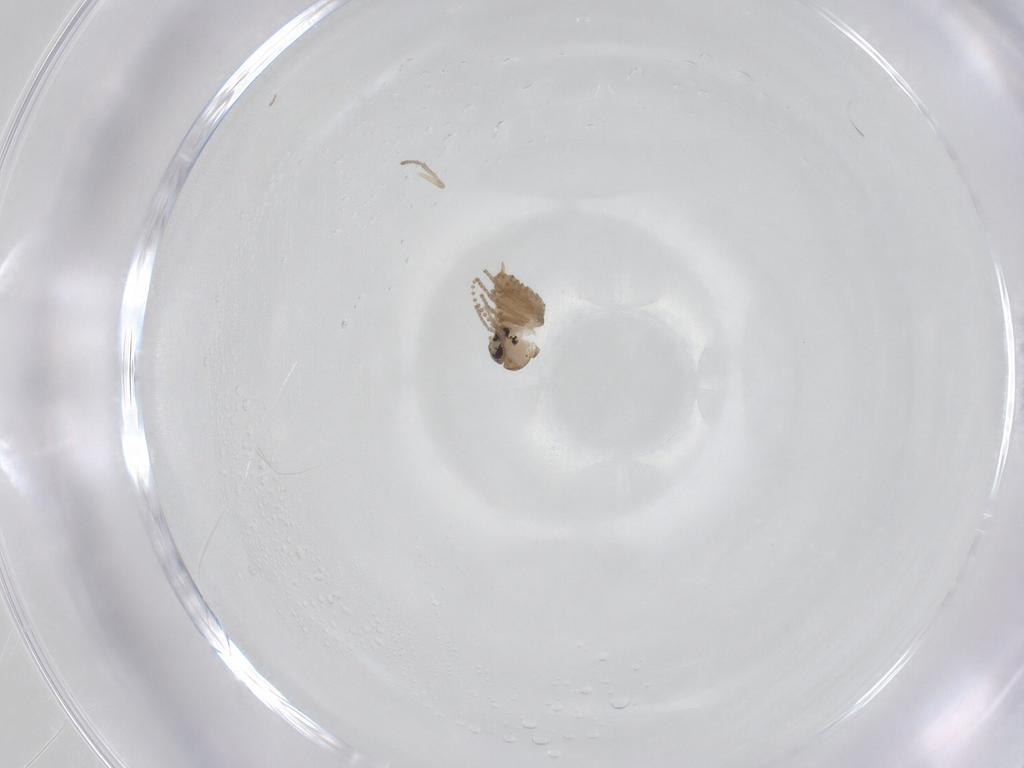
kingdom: Animalia
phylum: Arthropoda
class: Insecta
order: Diptera
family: Psychodidae
